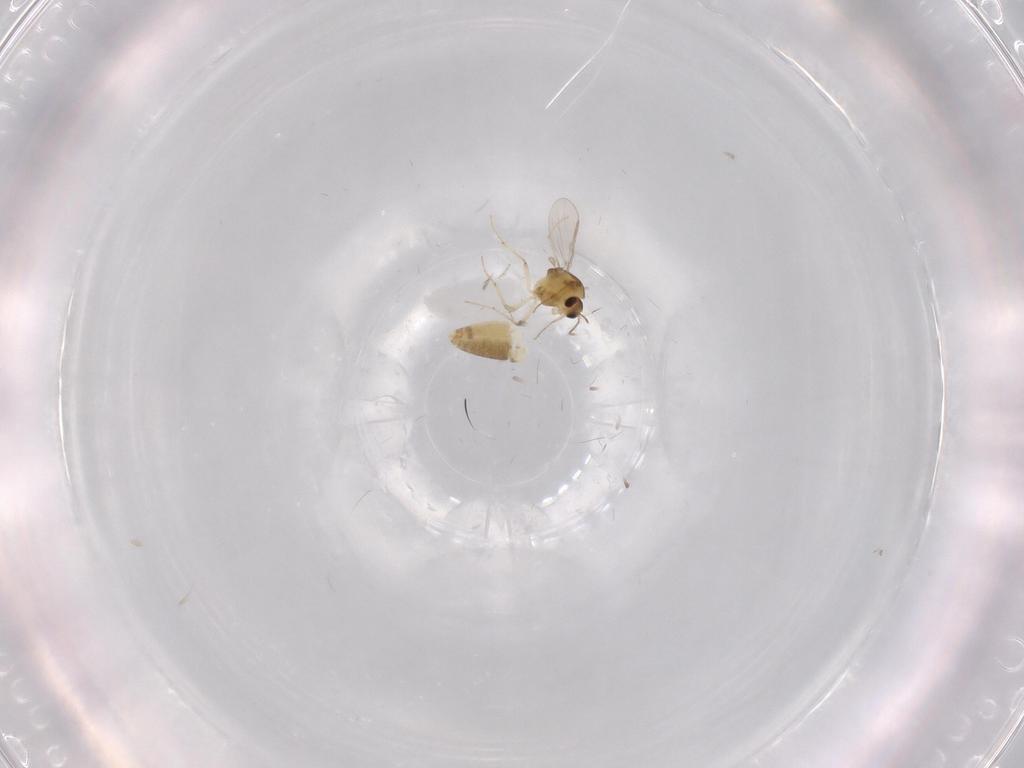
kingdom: Animalia
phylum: Arthropoda
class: Insecta
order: Diptera
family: Chironomidae
